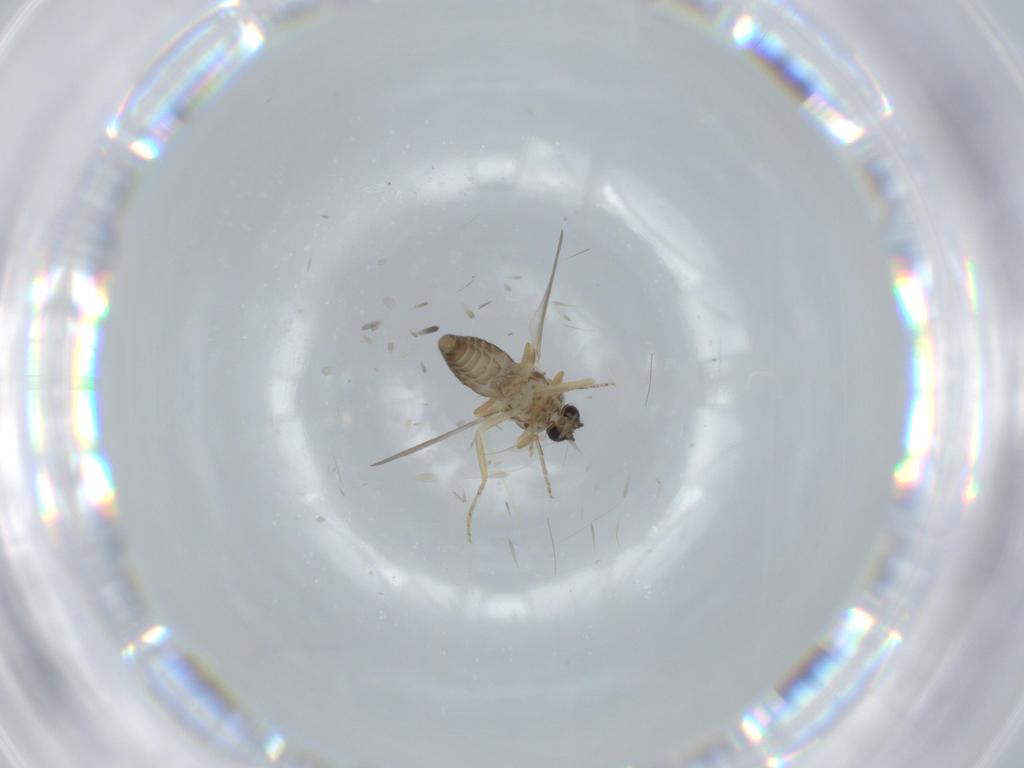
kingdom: Animalia
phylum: Arthropoda
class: Insecta
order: Diptera
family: Ceratopogonidae
